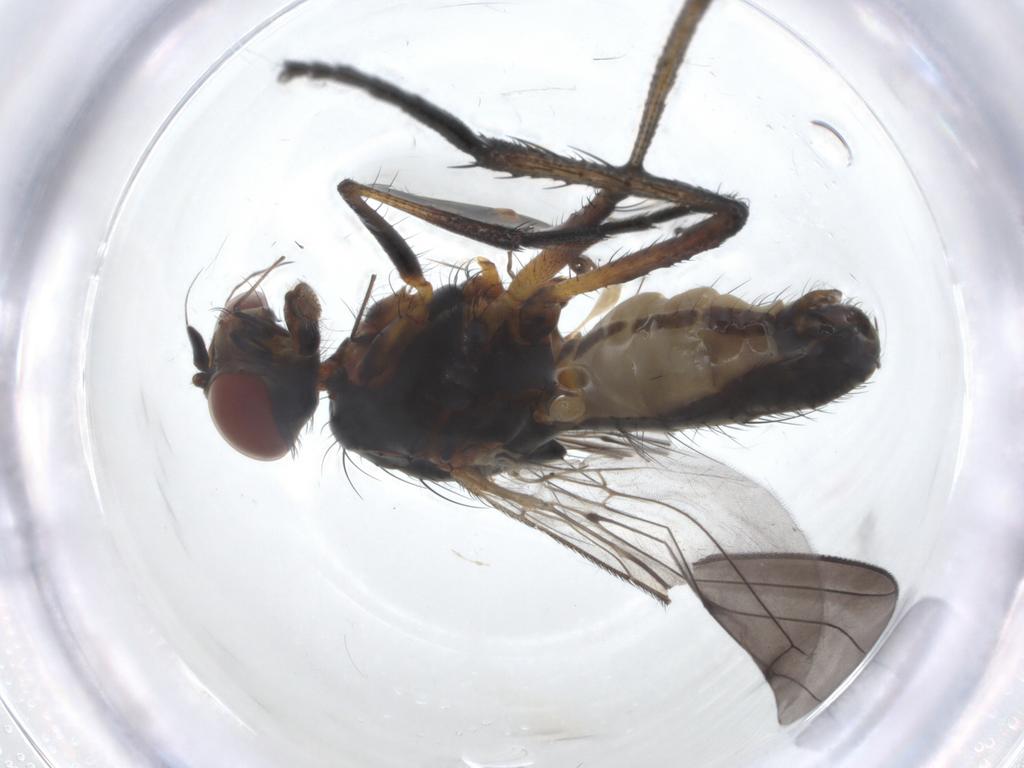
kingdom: Animalia
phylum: Arthropoda
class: Insecta
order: Diptera
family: Anthomyiidae
